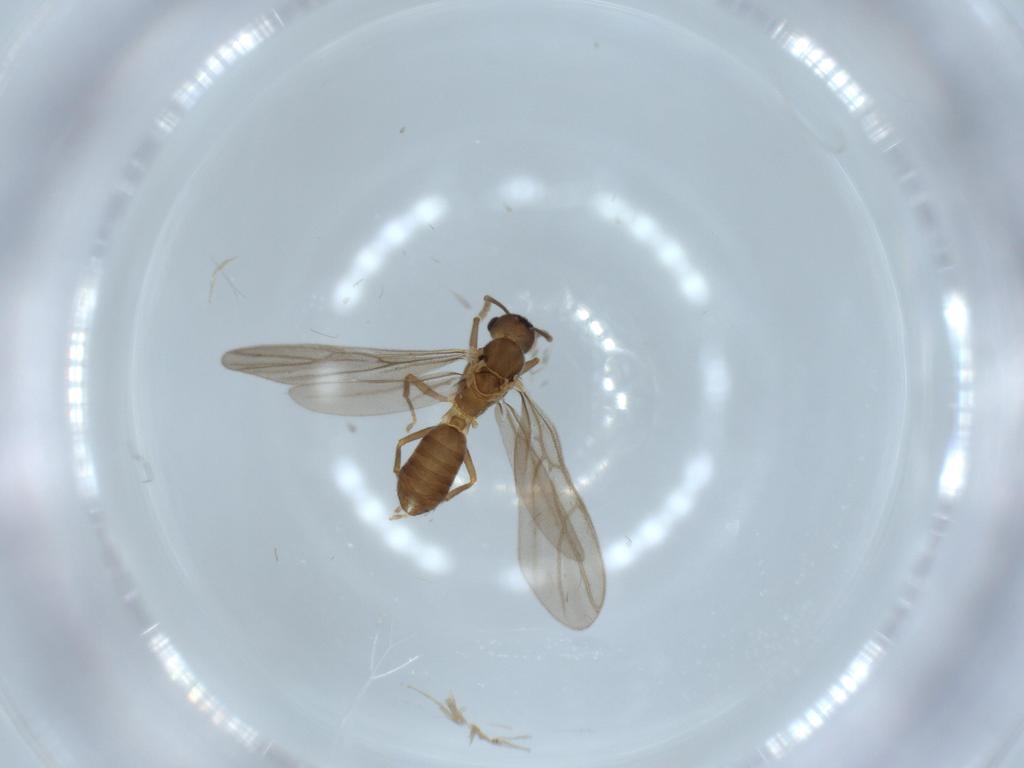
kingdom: Animalia
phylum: Arthropoda
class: Insecta
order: Hymenoptera
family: Formicidae
